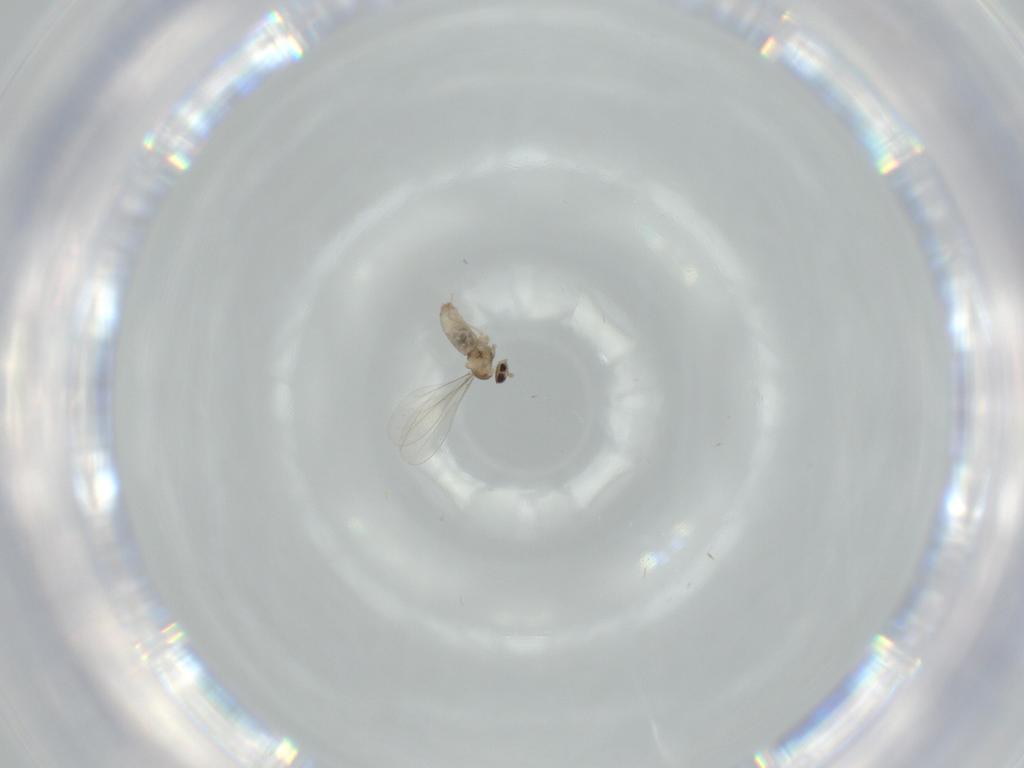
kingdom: Animalia
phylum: Arthropoda
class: Insecta
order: Diptera
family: Cecidomyiidae
